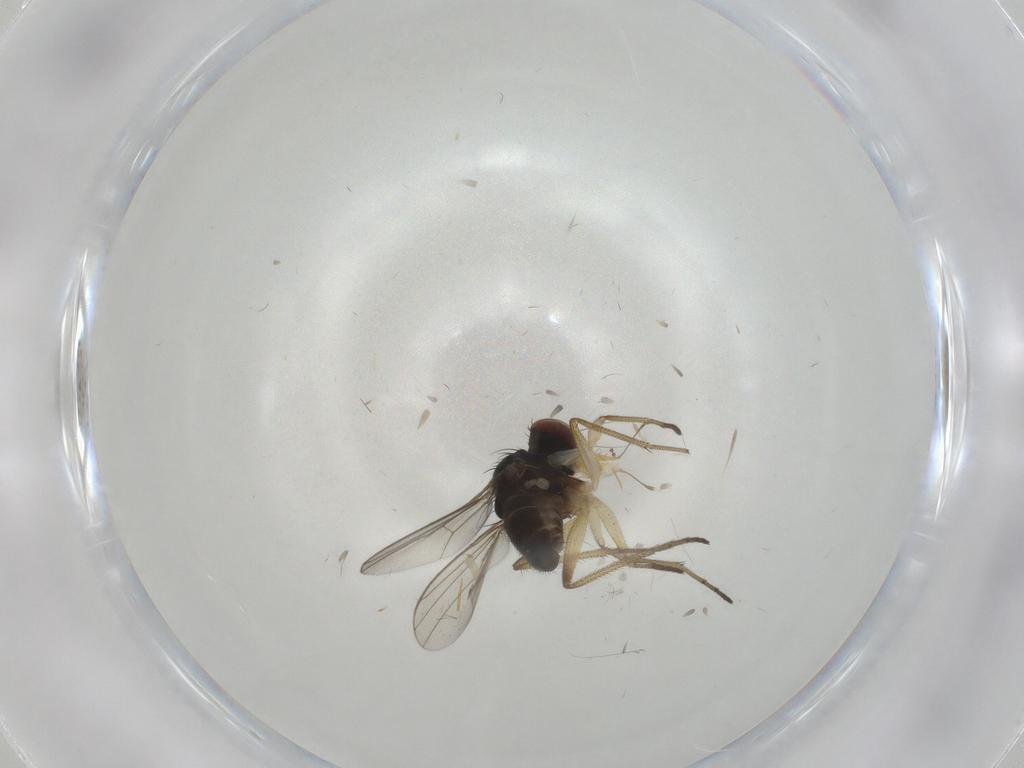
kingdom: Animalia
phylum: Arthropoda
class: Insecta
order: Diptera
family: Dolichopodidae
